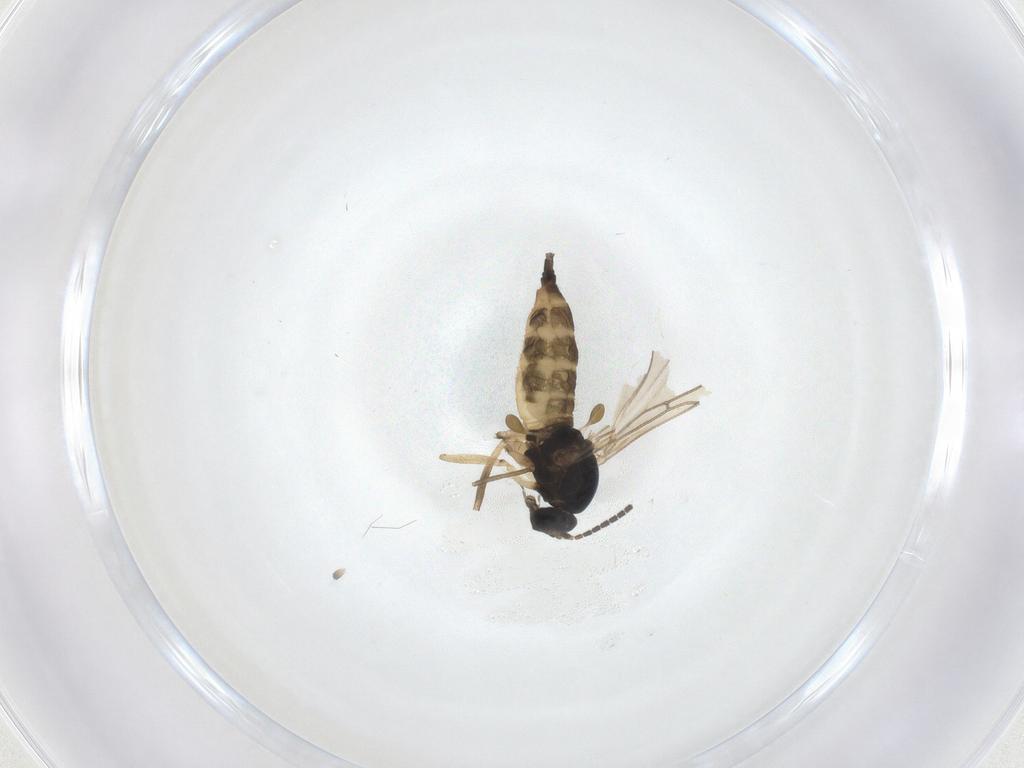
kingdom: Animalia
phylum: Arthropoda
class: Insecta
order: Diptera
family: Sciaridae
